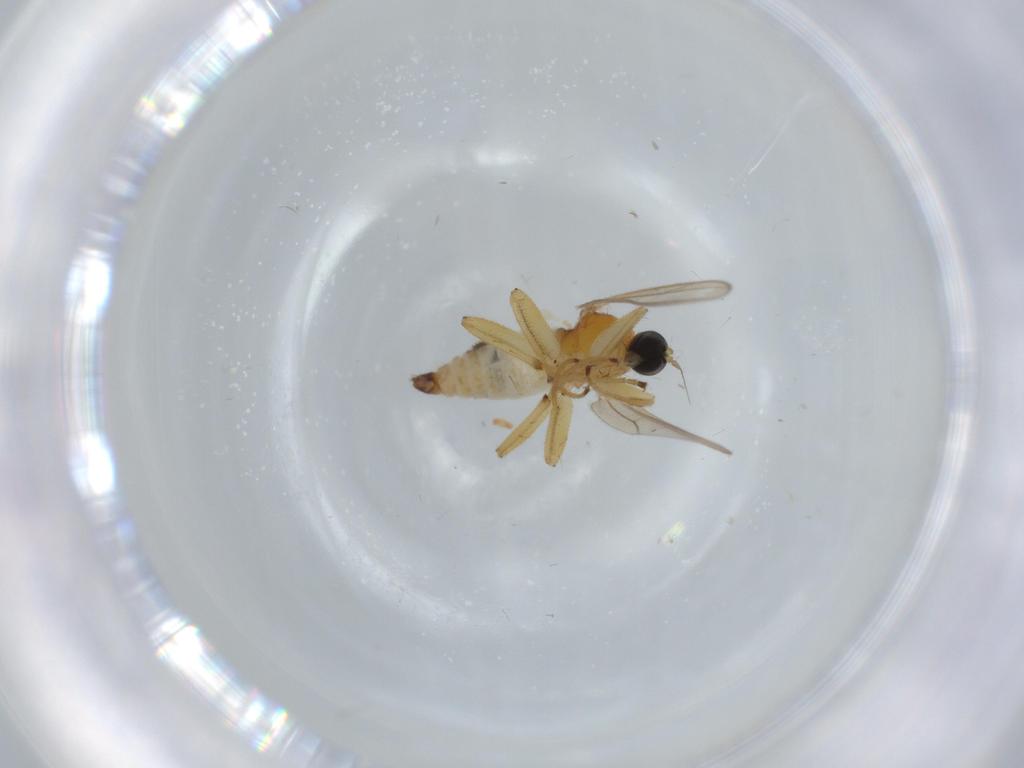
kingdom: Animalia
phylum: Arthropoda
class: Insecta
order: Diptera
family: Hybotidae
